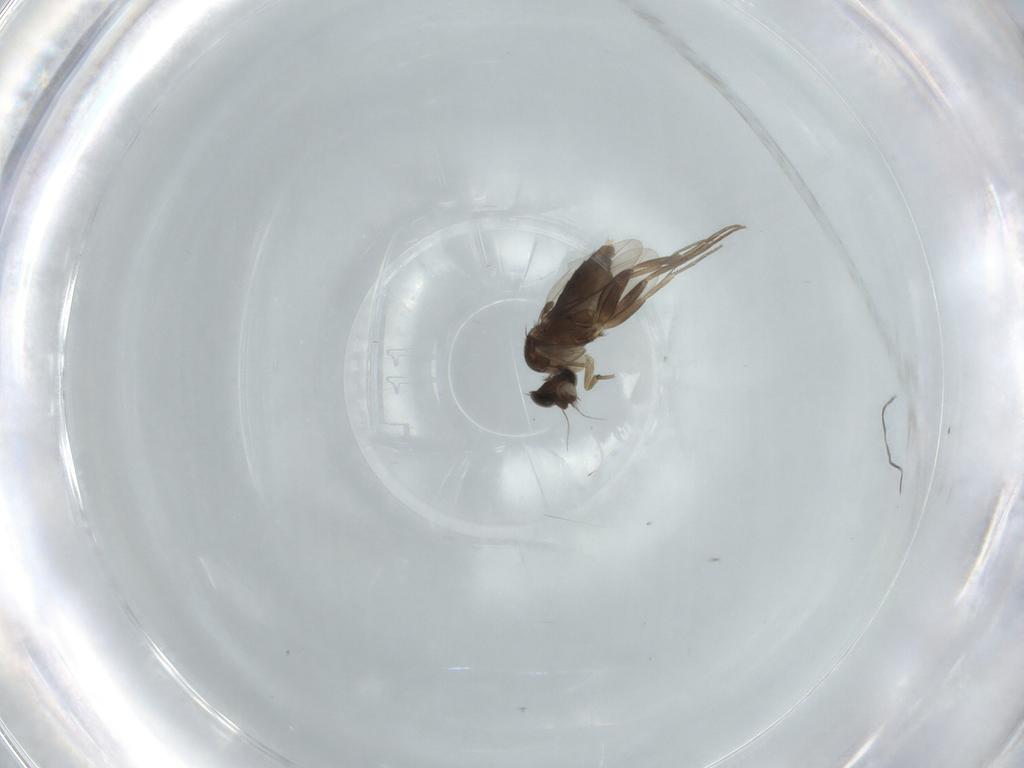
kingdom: Animalia
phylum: Arthropoda
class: Insecta
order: Diptera
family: Phoridae
